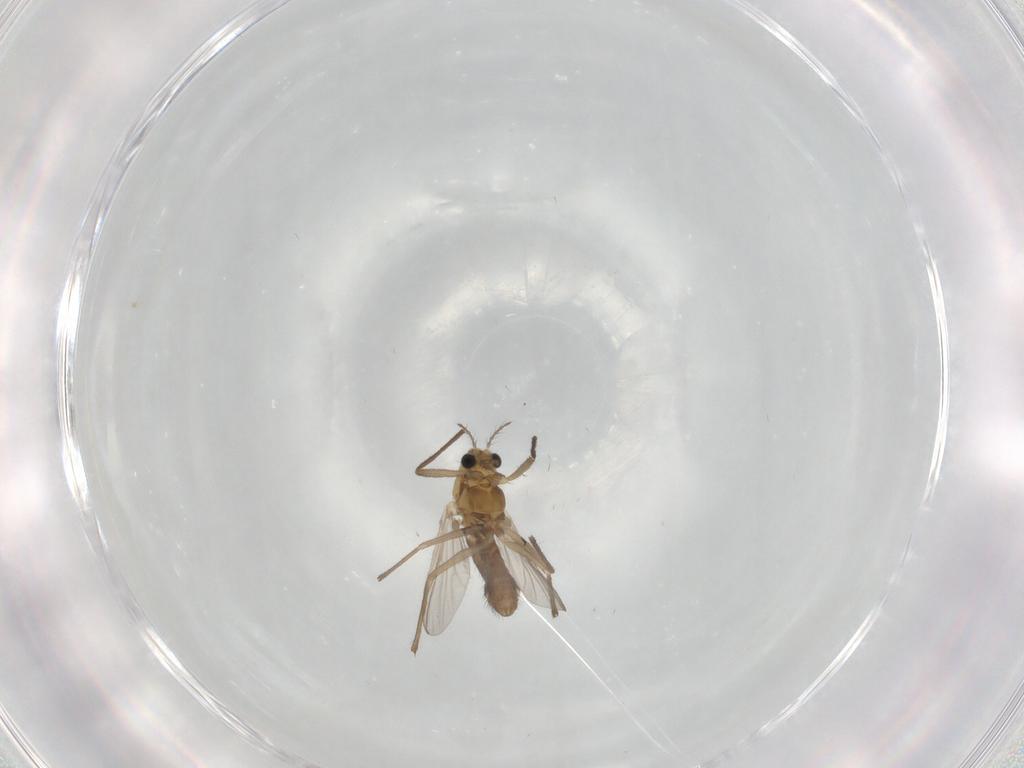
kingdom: Animalia
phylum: Arthropoda
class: Insecta
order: Diptera
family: Chironomidae
